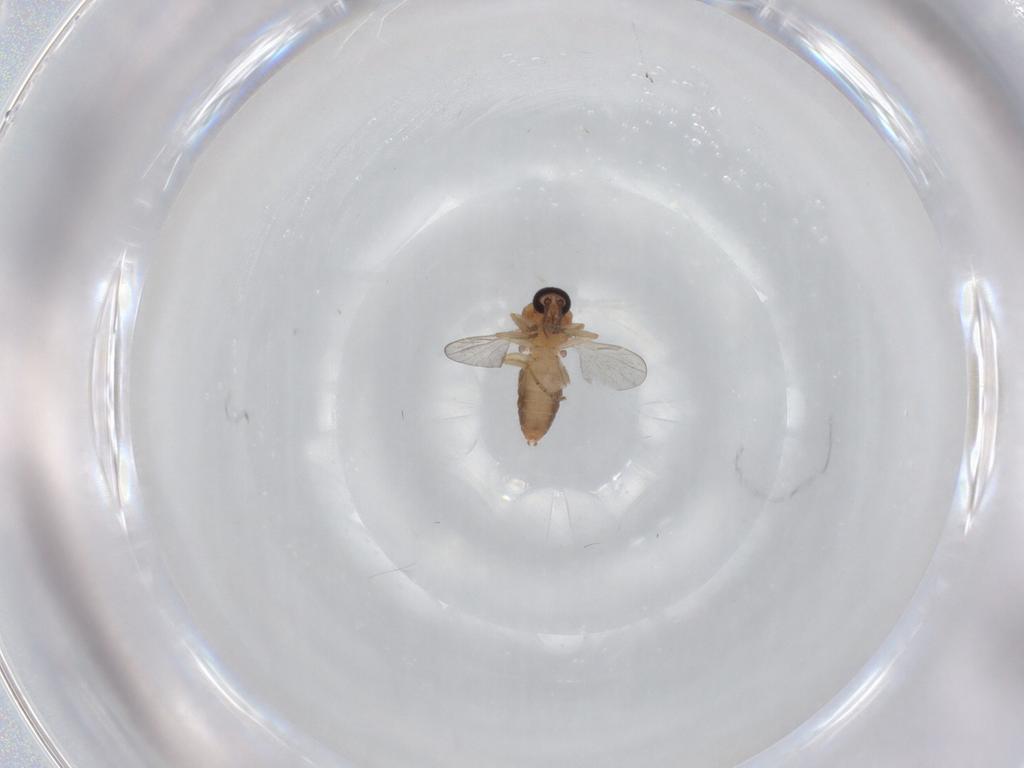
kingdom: Animalia
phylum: Arthropoda
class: Insecta
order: Diptera
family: Ceratopogonidae
